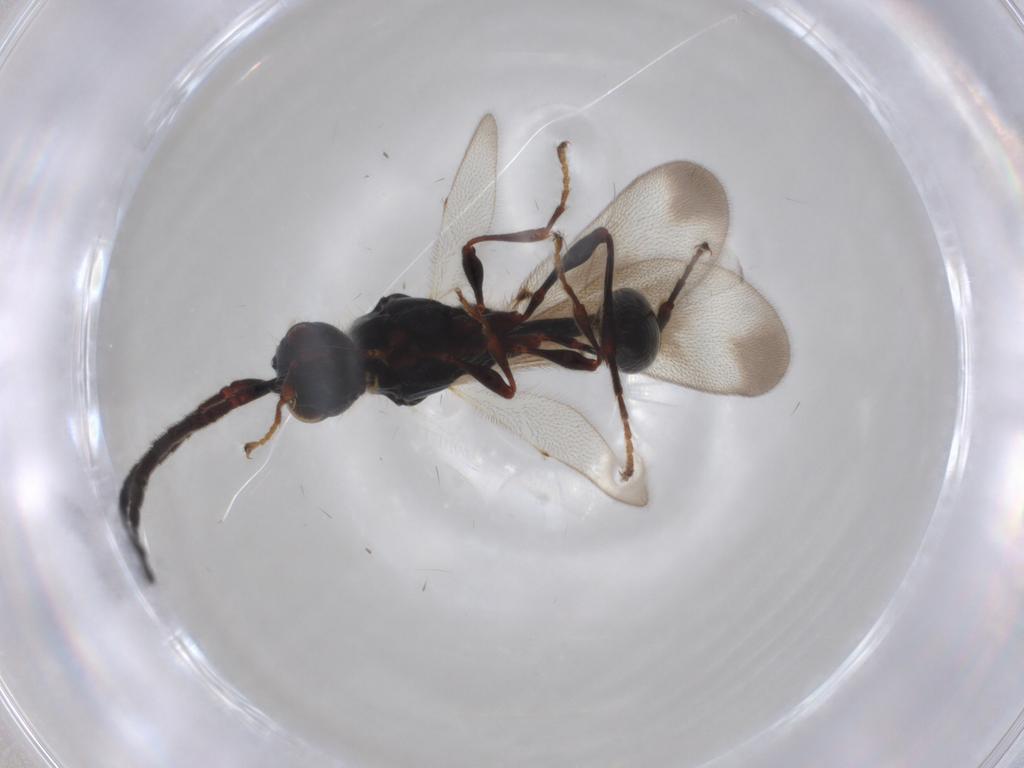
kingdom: Animalia
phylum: Arthropoda
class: Insecta
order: Hymenoptera
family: Diapriidae
